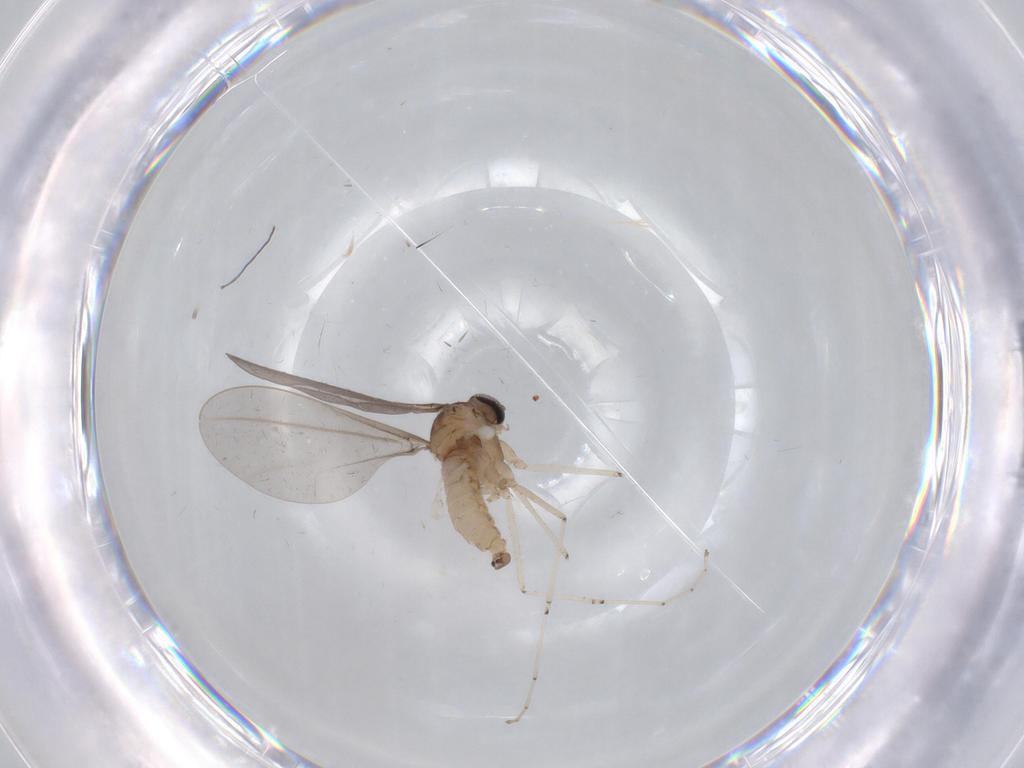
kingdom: Animalia
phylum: Arthropoda
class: Insecta
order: Diptera
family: Cecidomyiidae
